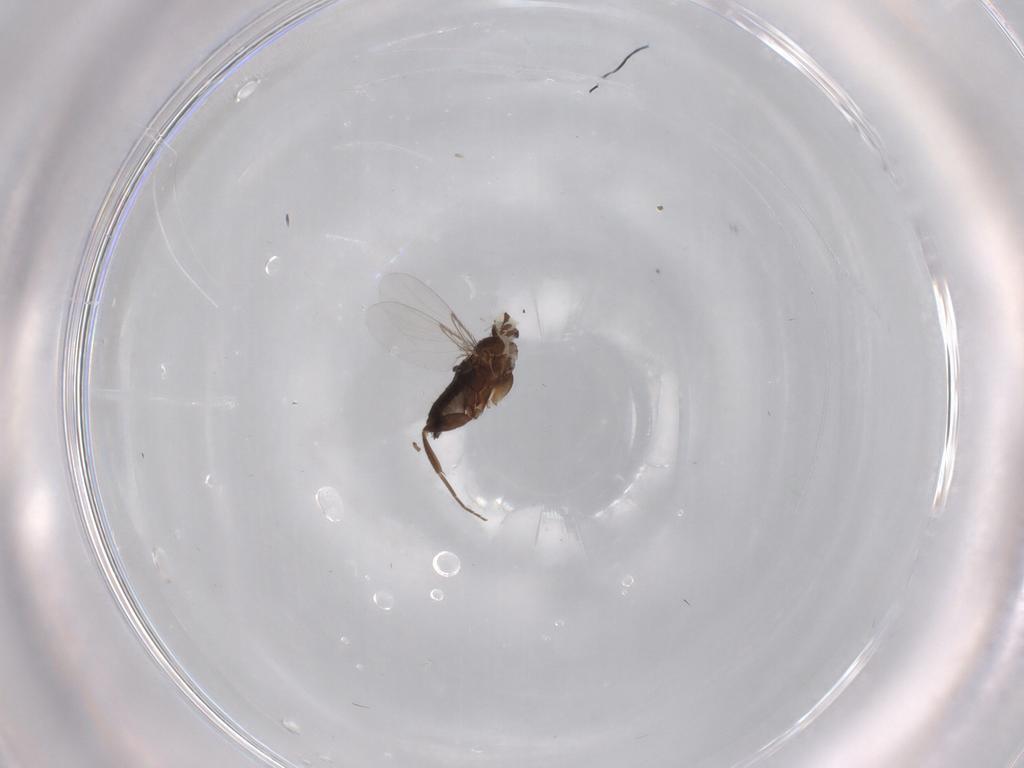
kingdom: Animalia
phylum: Arthropoda
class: Insecta
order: Diptera
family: Phoridae
